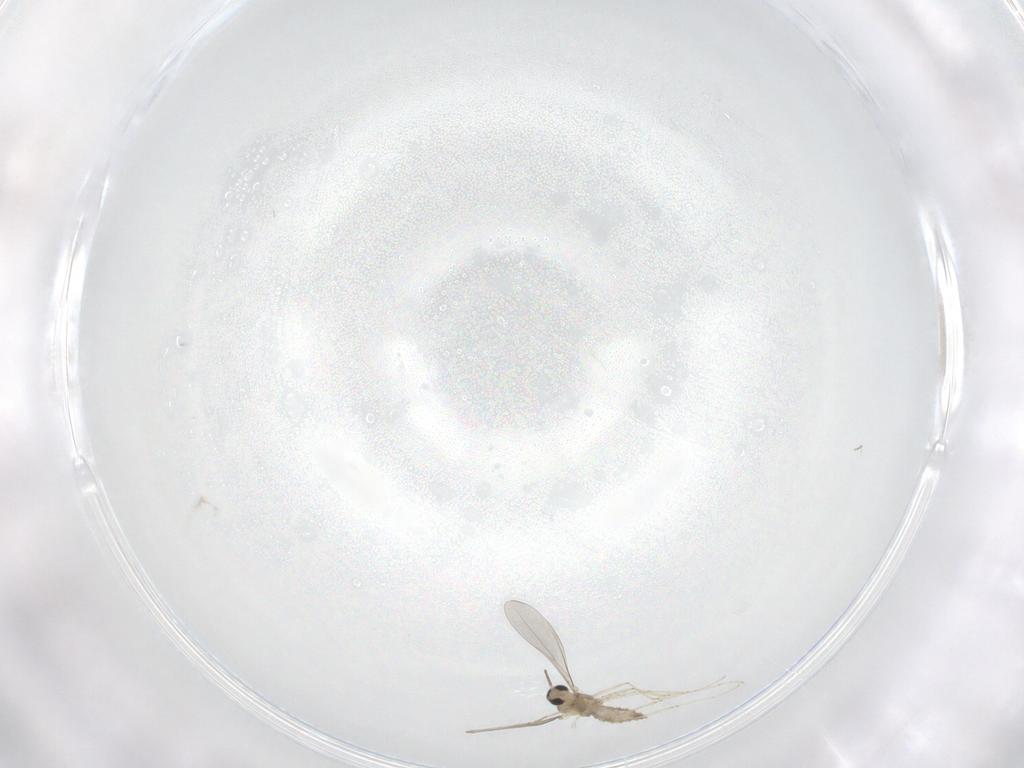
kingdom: Animalia
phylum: Arthropoda
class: Insecta
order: Diptera
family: Cecidomyiidae
